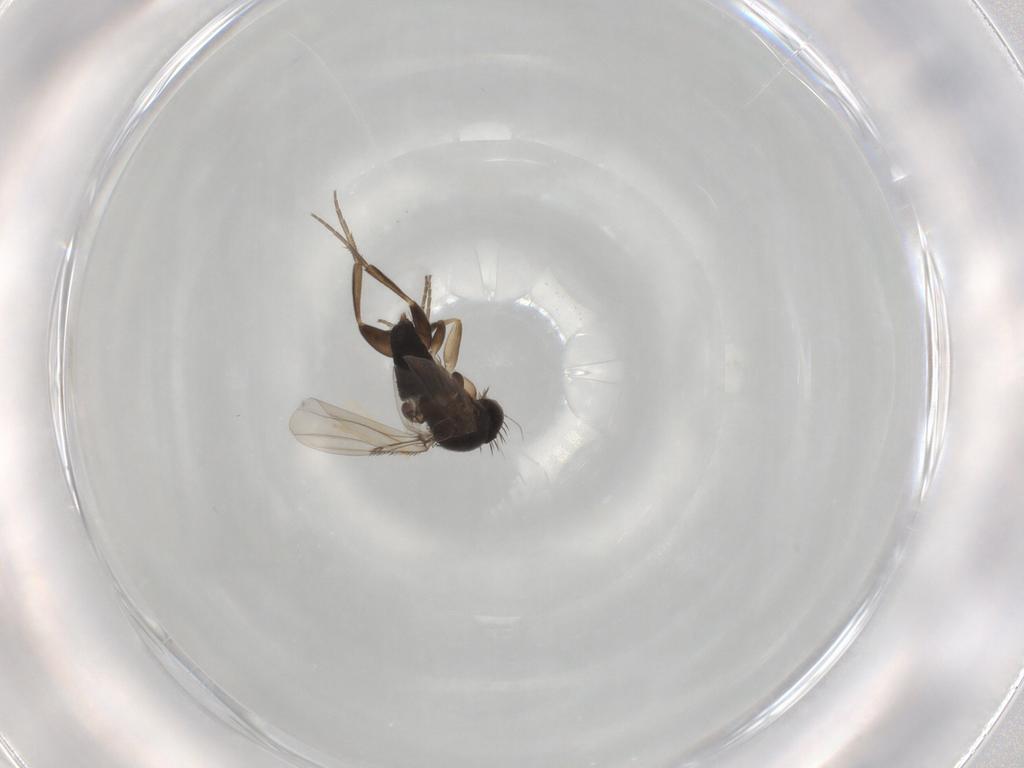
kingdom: Animalia
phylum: Arthropoda
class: Insecta
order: Diptera
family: Phoridae
